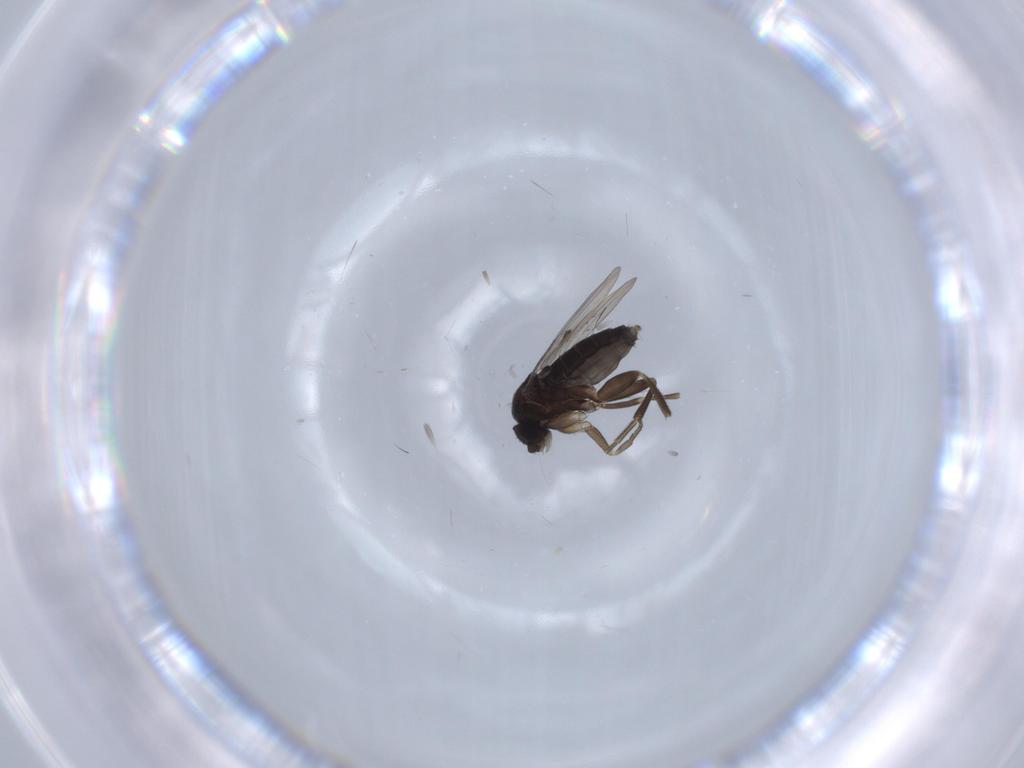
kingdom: Animalia
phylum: Arthropoda
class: Insecta
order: Diptera
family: Phoridae
